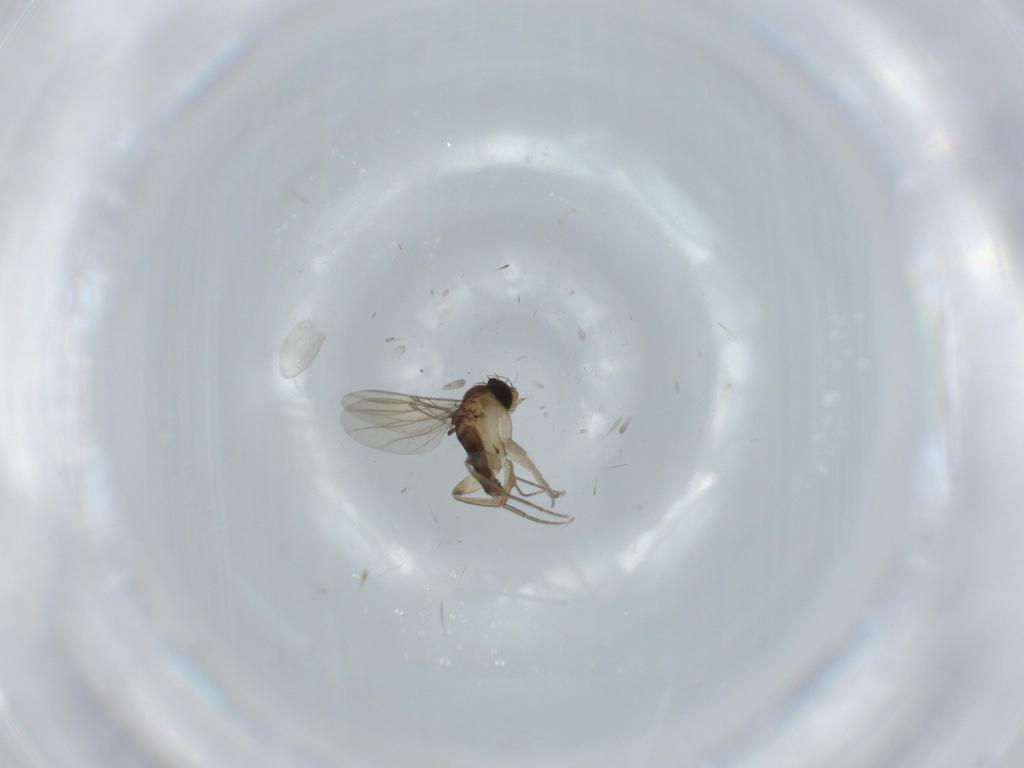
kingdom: Animalia
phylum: Arthropoda
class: Insecta
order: Diptera
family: Phoridae
